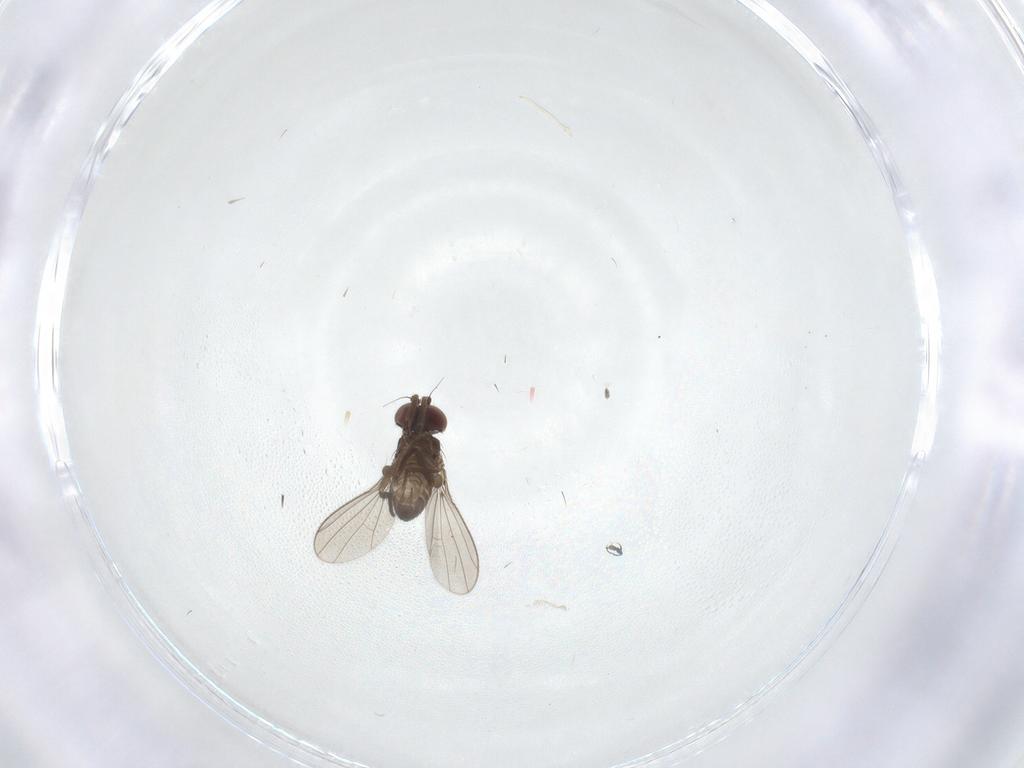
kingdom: Animalia
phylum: Arthropoda
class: Insecta
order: Diptera
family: Dolichopodidae
